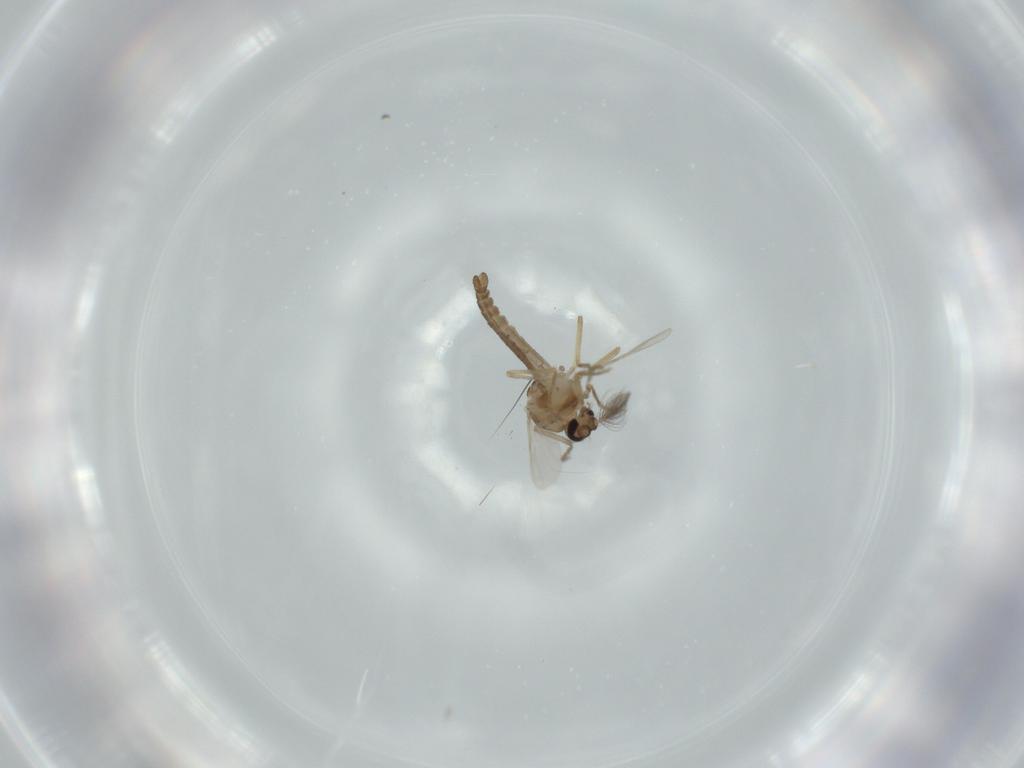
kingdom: Animalia
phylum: Arthropoda
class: Insecta
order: Diptera
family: Ceratopogonidae
